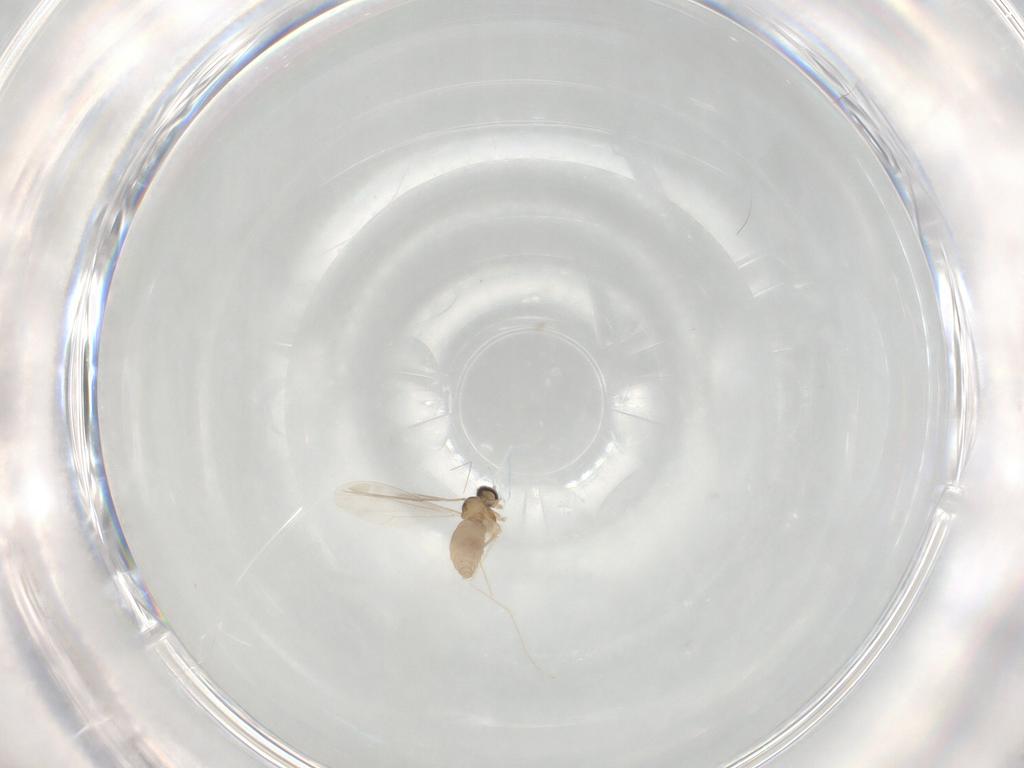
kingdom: Animalia
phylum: Arthropoda
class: Insecta
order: Diptera
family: Cecidomyiidae
